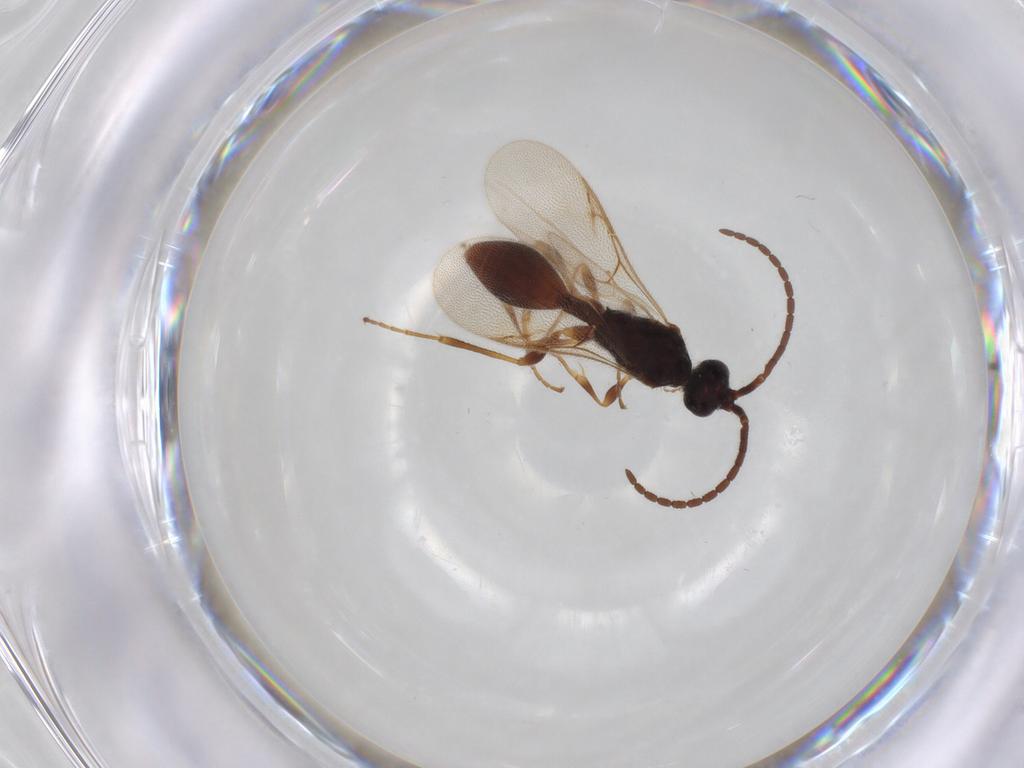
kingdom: Animalia
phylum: Arthropoda
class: Insecta
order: Hymenoptera
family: Diapriidae
